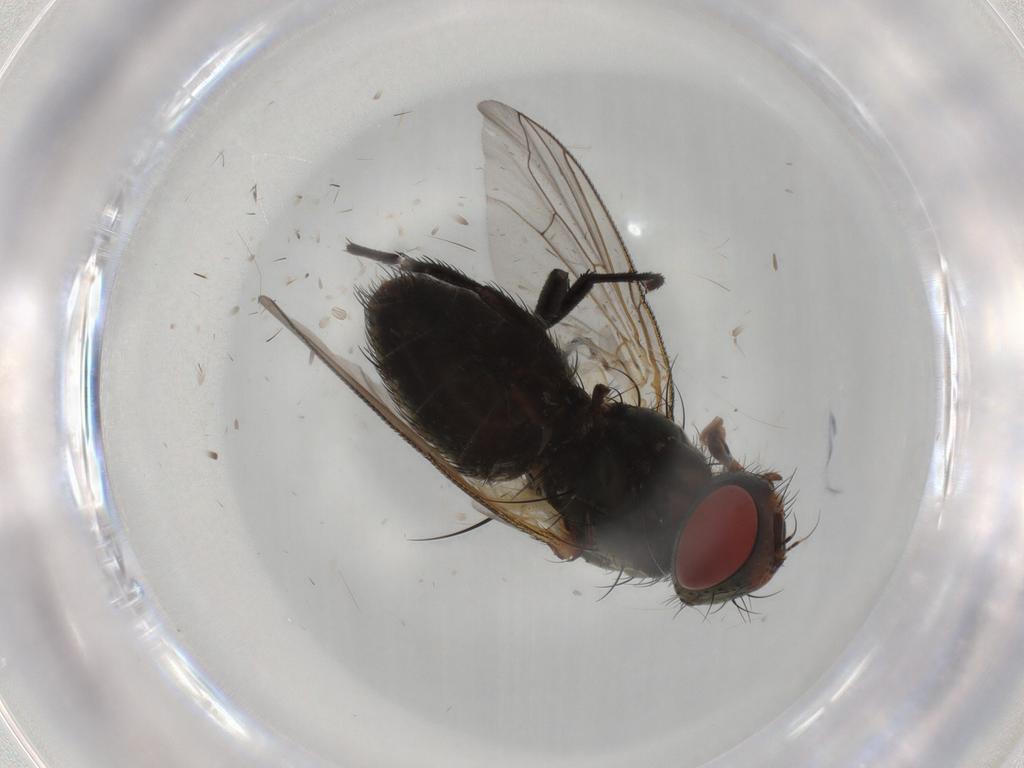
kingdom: Animalia
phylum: Arthropoda
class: Insecta
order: Diptera
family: Sarcophagidae
